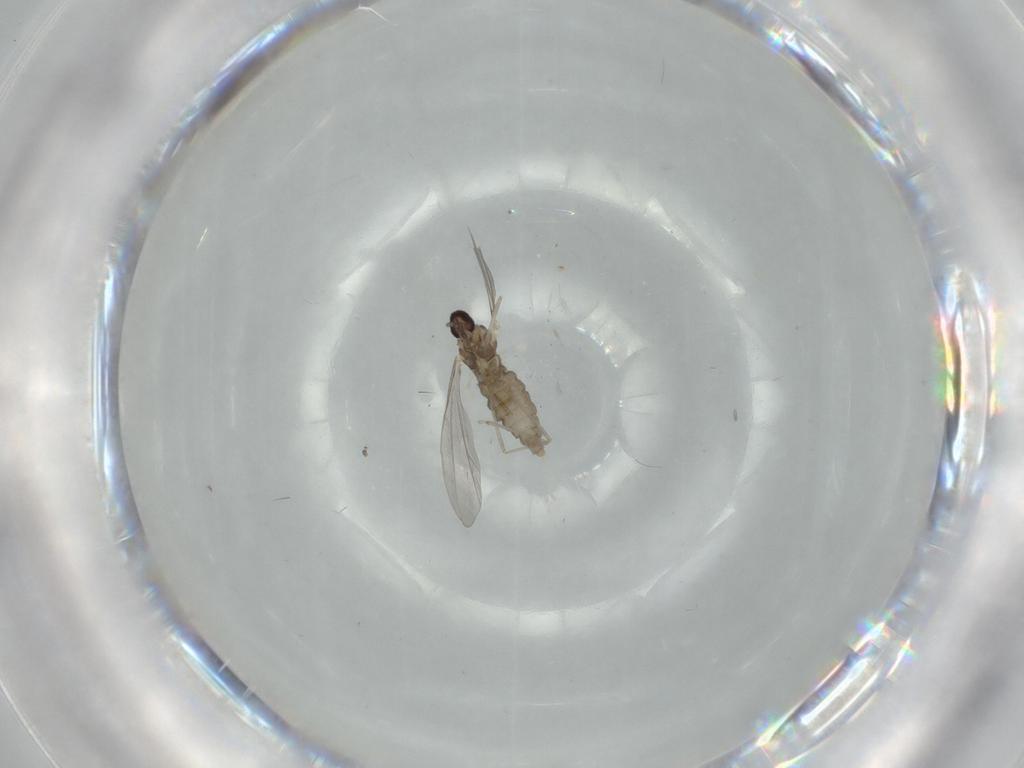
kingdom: Animalia
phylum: Arthropoda
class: Insecta
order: Diptera
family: Cecidomyiidae
